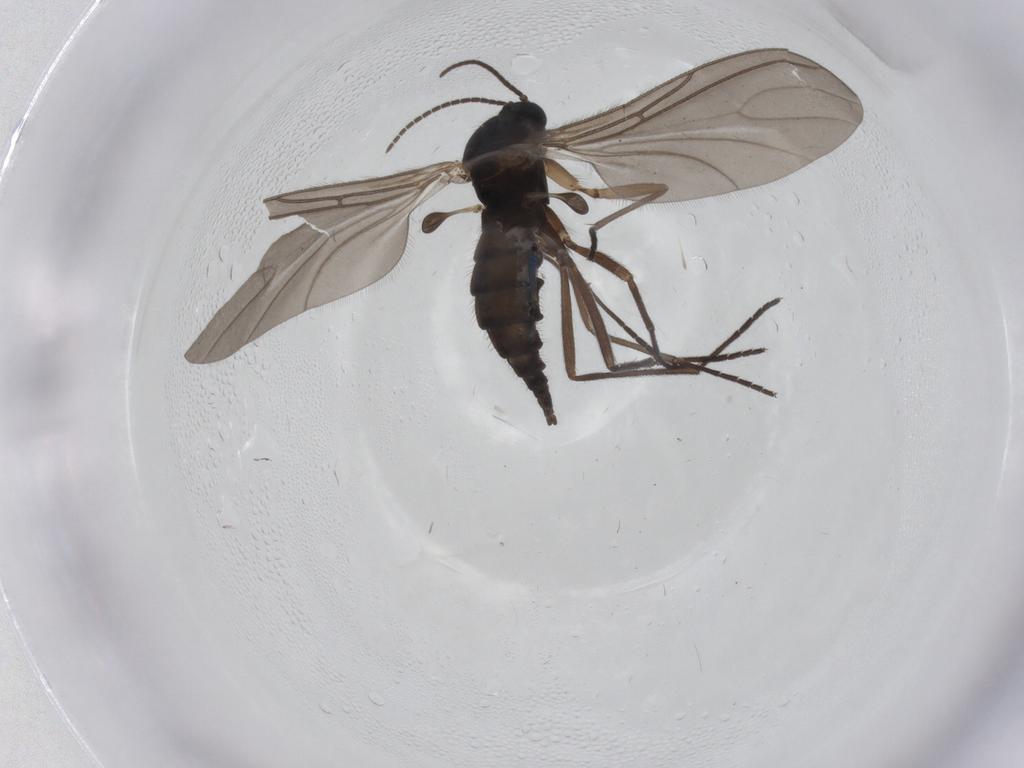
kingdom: Animalia
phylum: Arthropoda
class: Insecta
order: Diptera
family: Sciaridae
